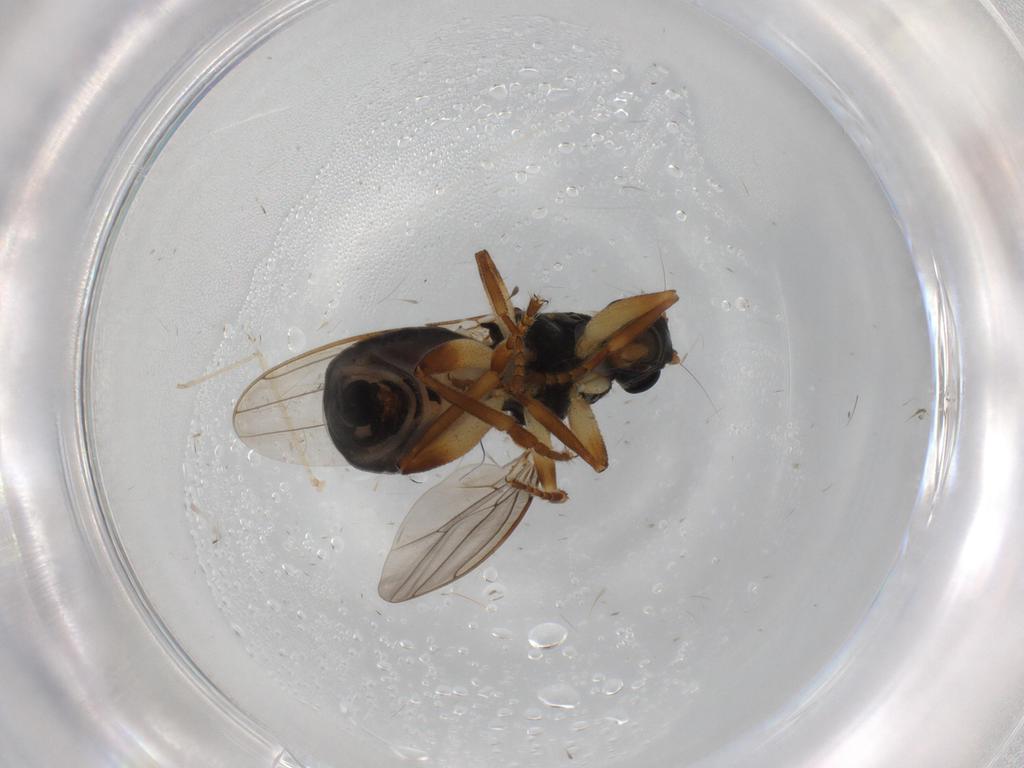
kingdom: Animalia
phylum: Arthropoda
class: Insecta
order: Diptera
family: Sphaeroceridae
